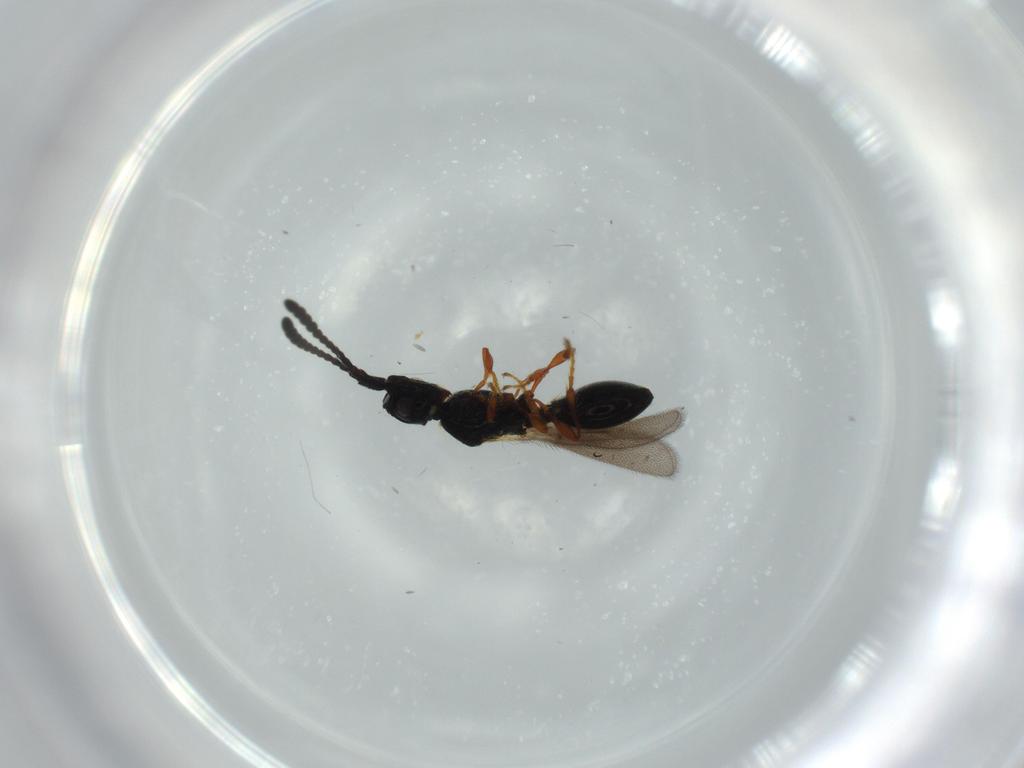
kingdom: Animalia
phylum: Arthropoda
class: Insecta
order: Hymenoptera
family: Diapriidae
